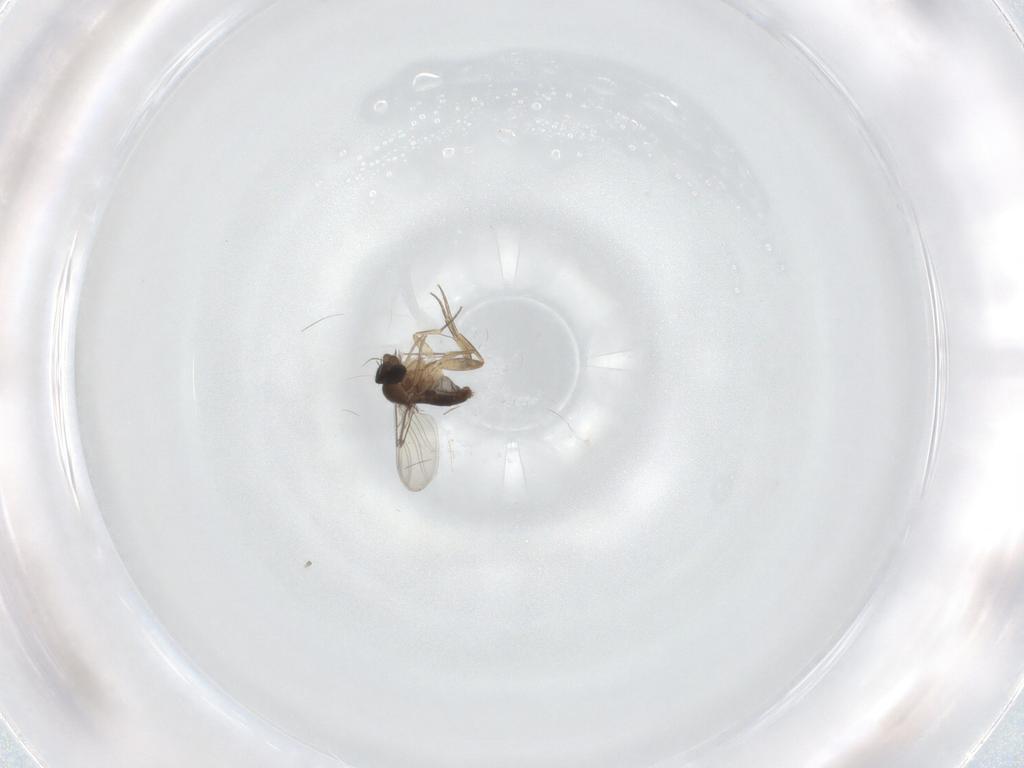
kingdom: Animalia
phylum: Arthropoda
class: Insecta
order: Diptera
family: Cecidomyiidae
